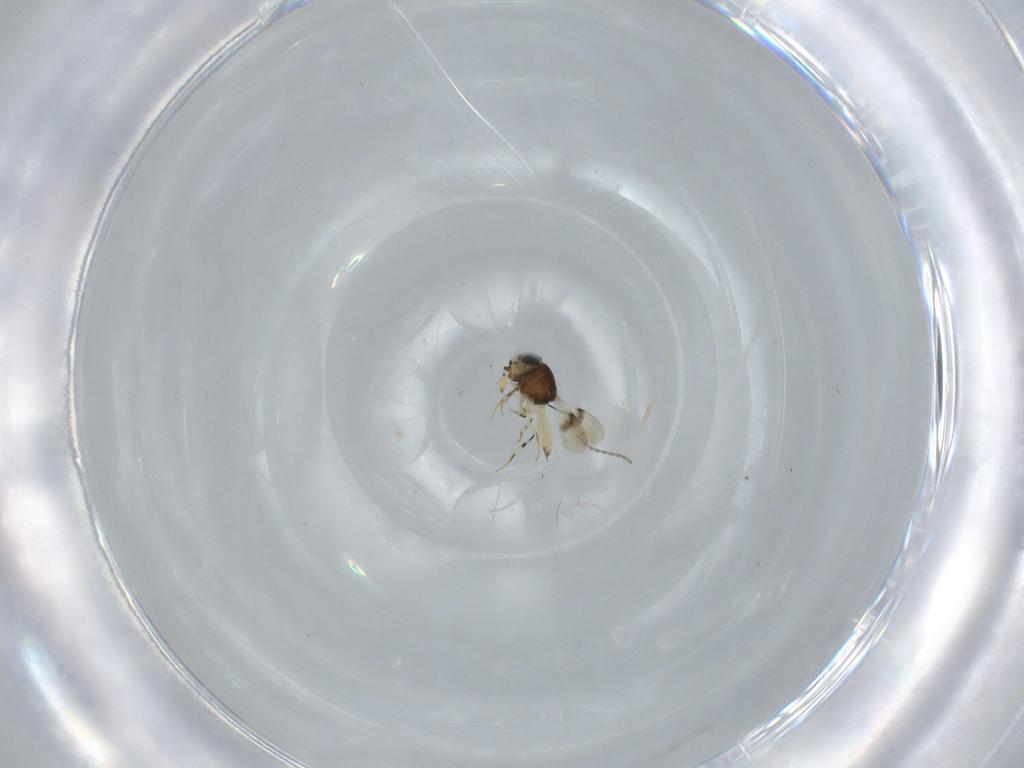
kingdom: Animalia
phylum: Arthropoda
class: Insecta
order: Hymenoptera
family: Scelionidae
